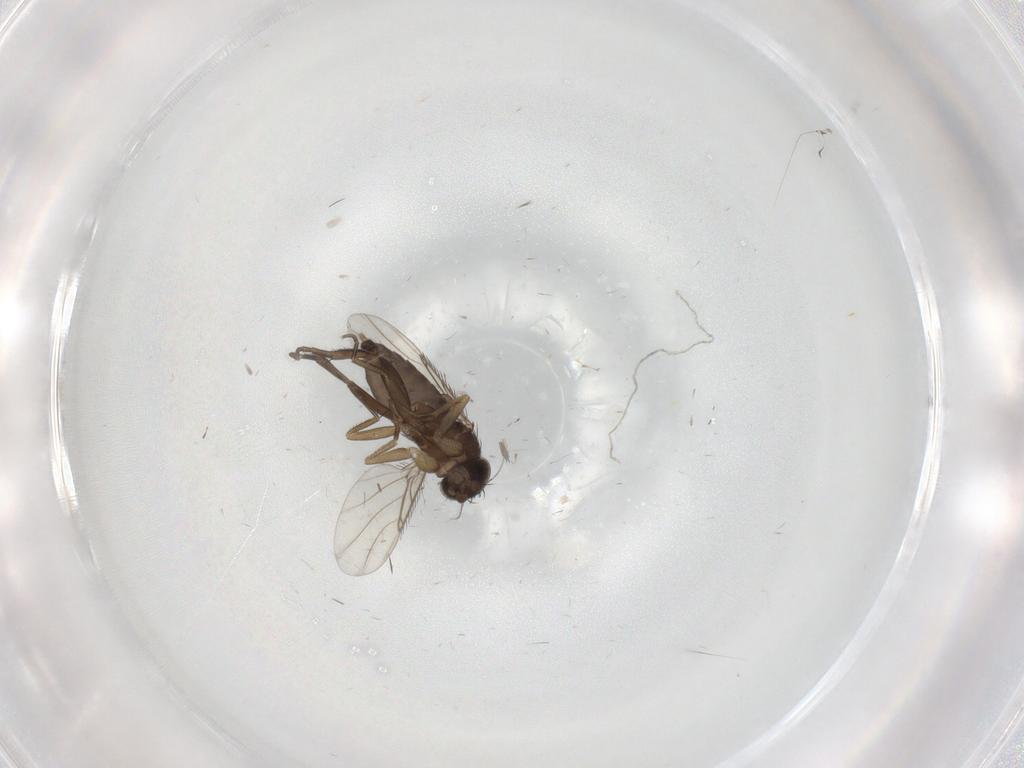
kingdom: Animalia
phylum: Arthropoda
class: Insecta
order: Diptera
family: Phoridae
